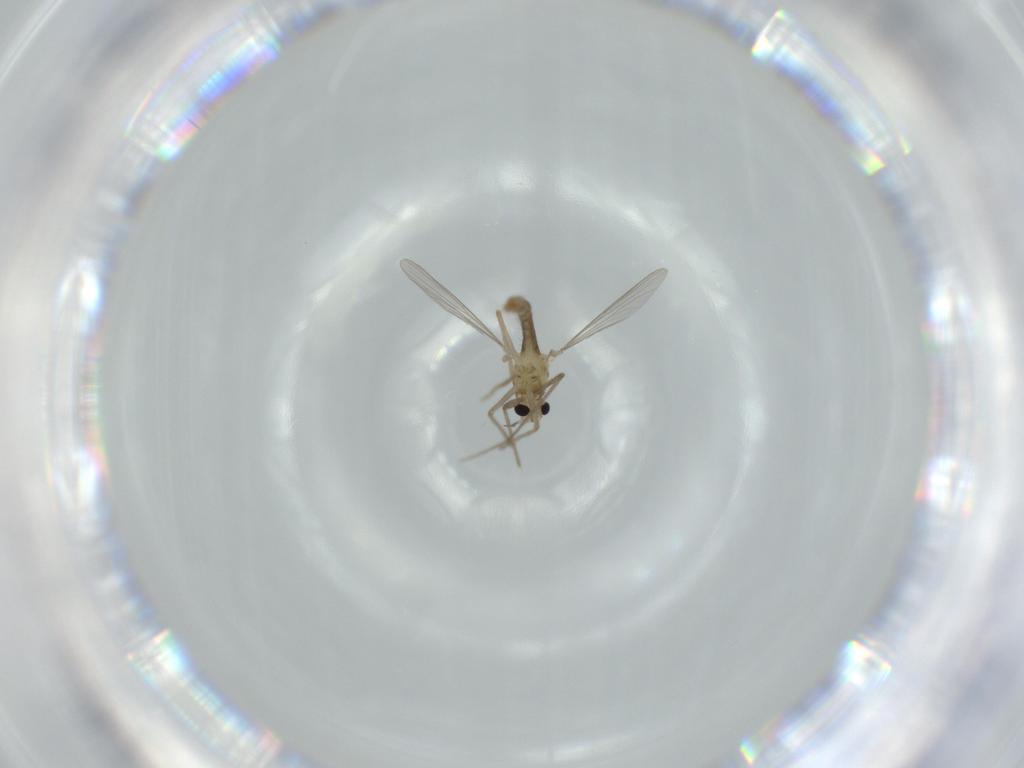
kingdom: Animalia
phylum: Arthropoda
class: Insecta
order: Diptera
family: Chironomidae
